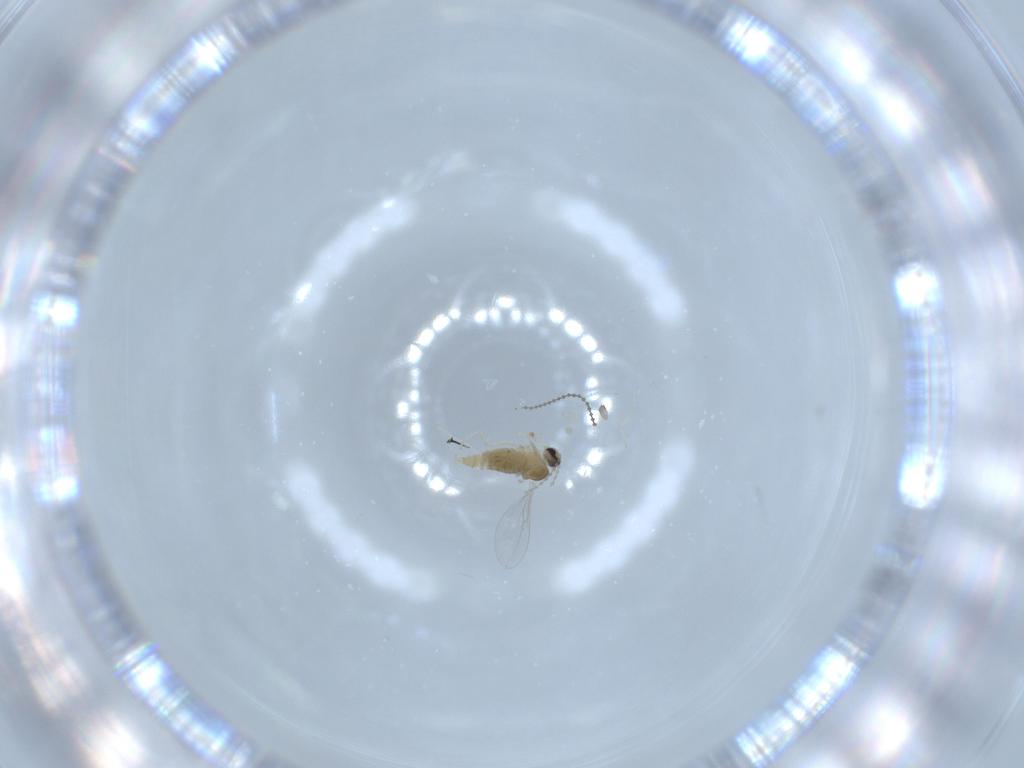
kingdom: Animalia
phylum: Arthropoda
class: Insecta
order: Diptera
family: Cecidomyiidae
